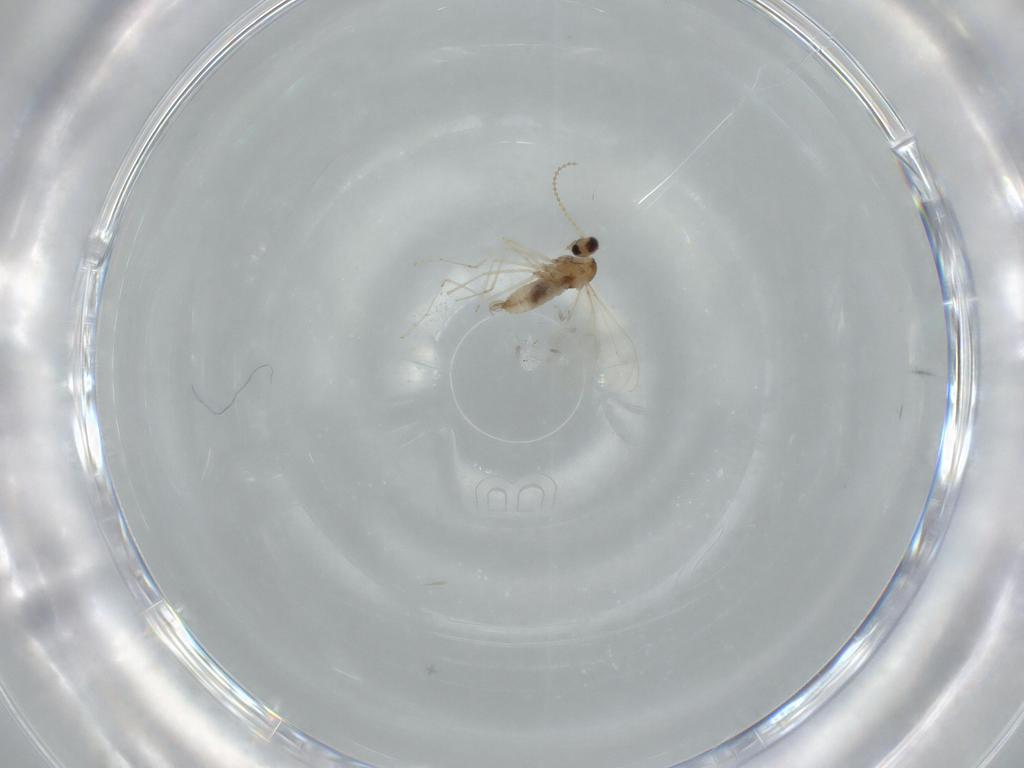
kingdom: Animalia
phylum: Arthropoda
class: Insecta
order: Diptera
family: Cecidomyiidae
